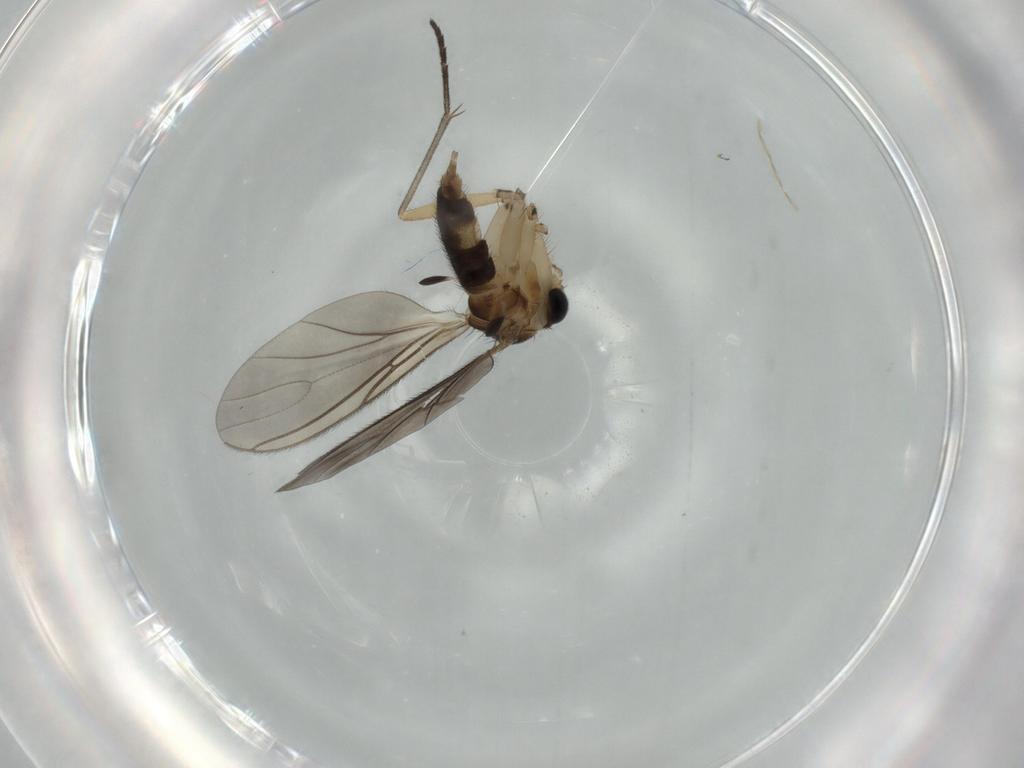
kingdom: Animalia
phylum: Arthropoda
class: Insecta
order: Diptera
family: Sciaridae
